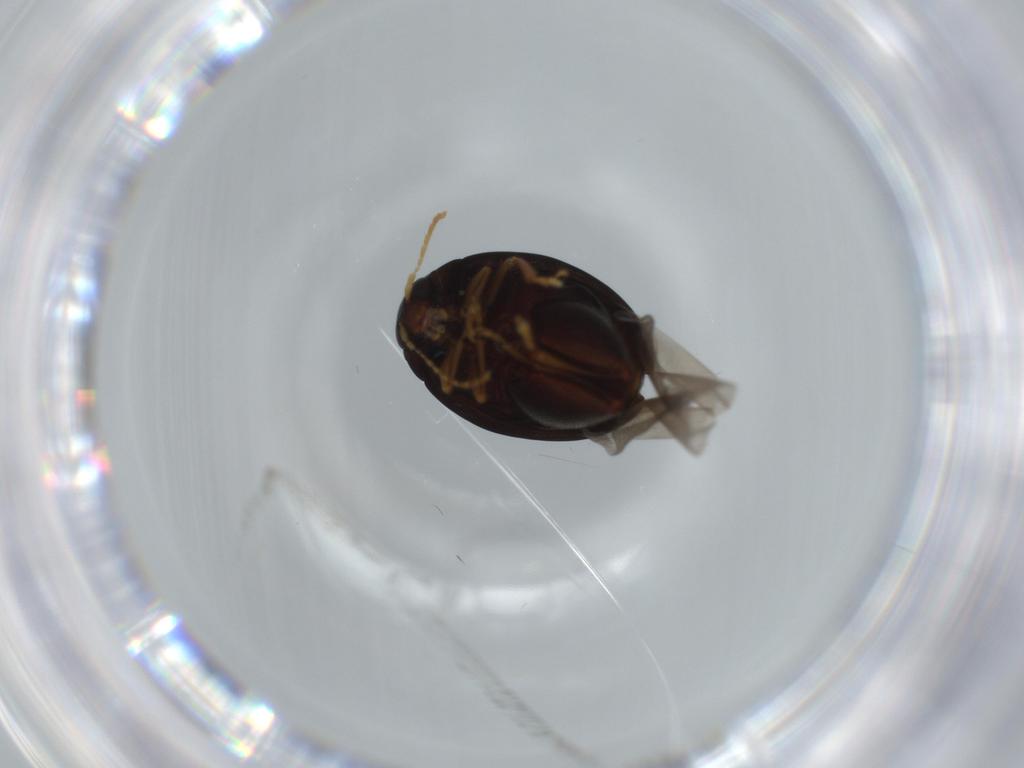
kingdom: Animalia
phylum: Arthropoda
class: Insecta
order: Coleoptera
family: Chrysomelidae
